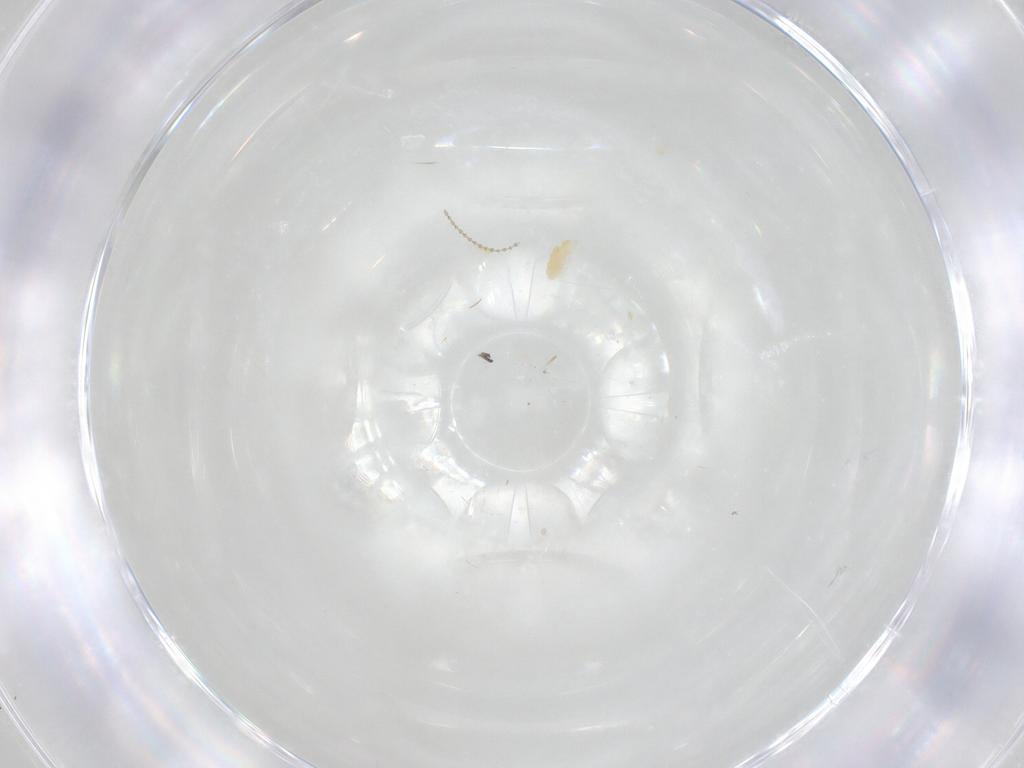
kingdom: Animalia
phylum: Arthropoda
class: Arachnida
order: Trombidiformes
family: Eupodidae
